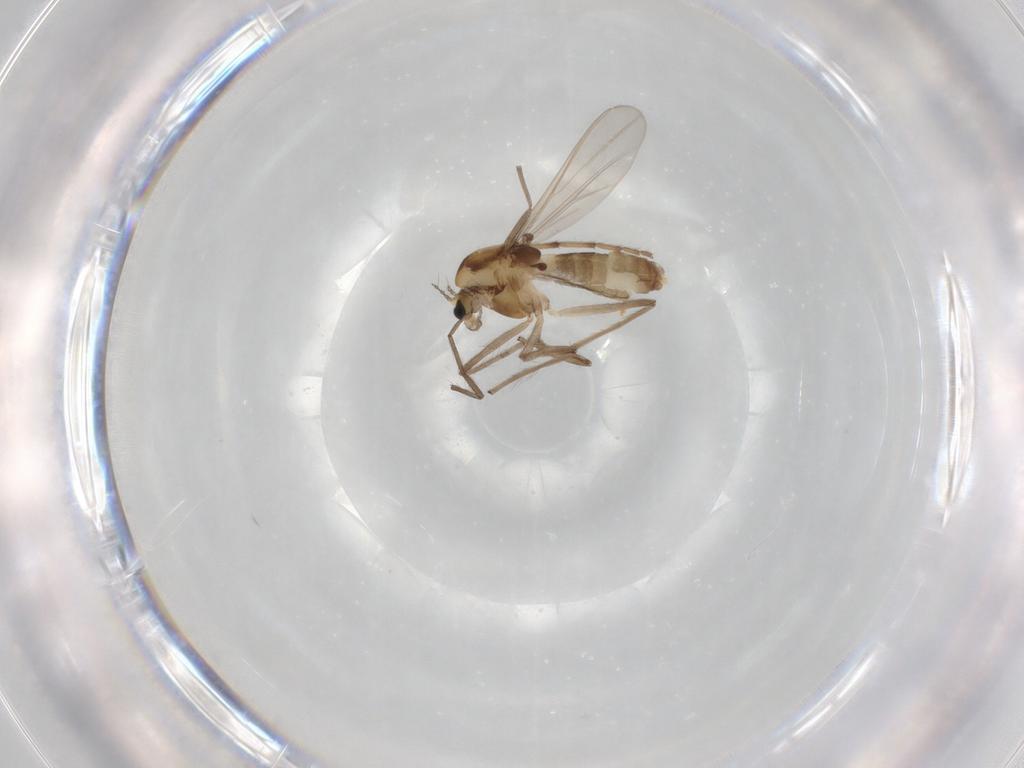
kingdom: Animalia
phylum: Arthropoda
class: Insecta
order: Diptera
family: Chironomidae
